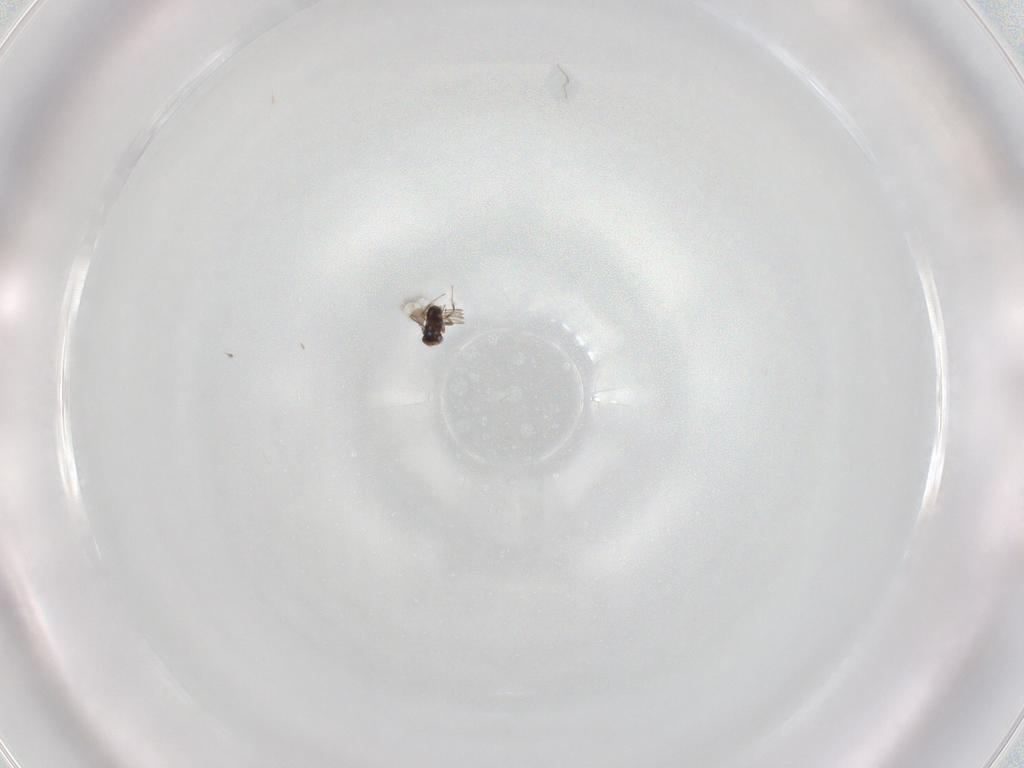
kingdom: Animalia
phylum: Arthropoda
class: Insecta
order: Hymenoptera
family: Trichogrammatidae
